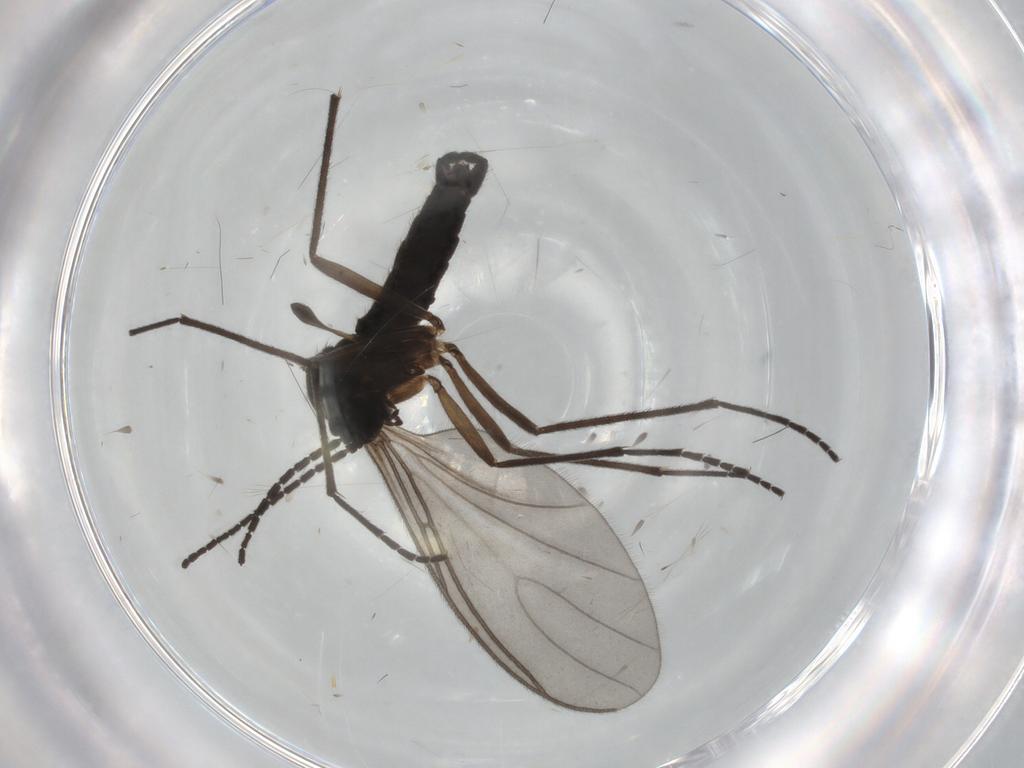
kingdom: Animalia
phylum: Arthropoda
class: Insecta
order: Diptera
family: Sciaridae
